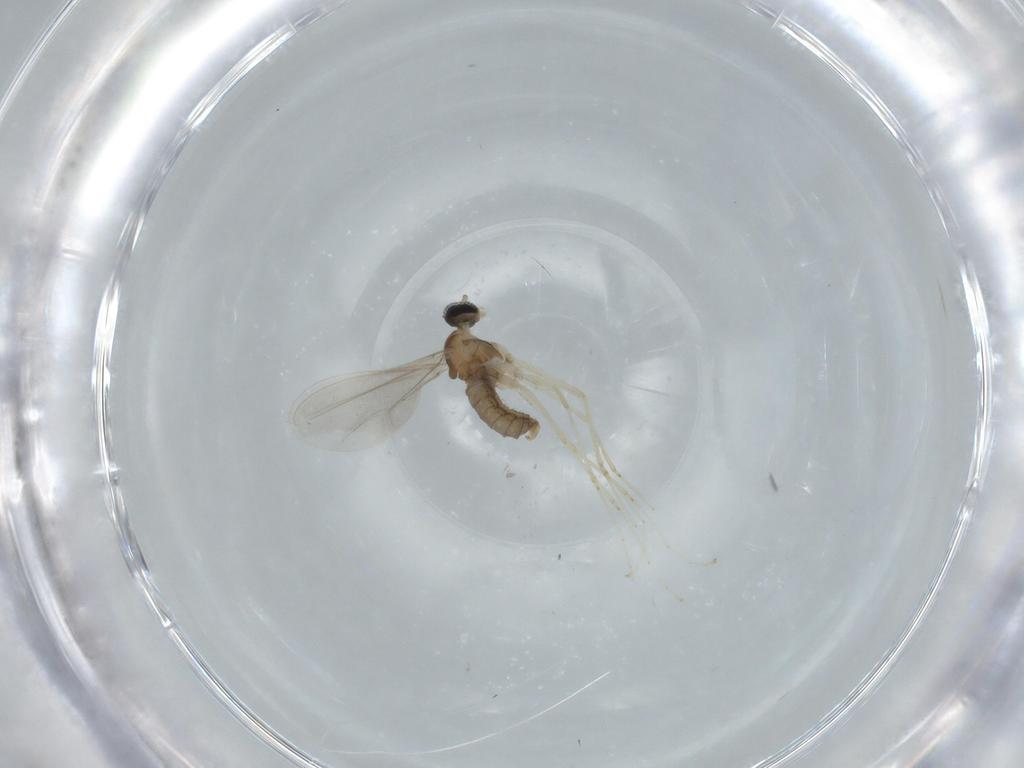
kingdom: Animalia
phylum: Arthropoda
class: Insecta
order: Diptera
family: Cecidomyiidae
